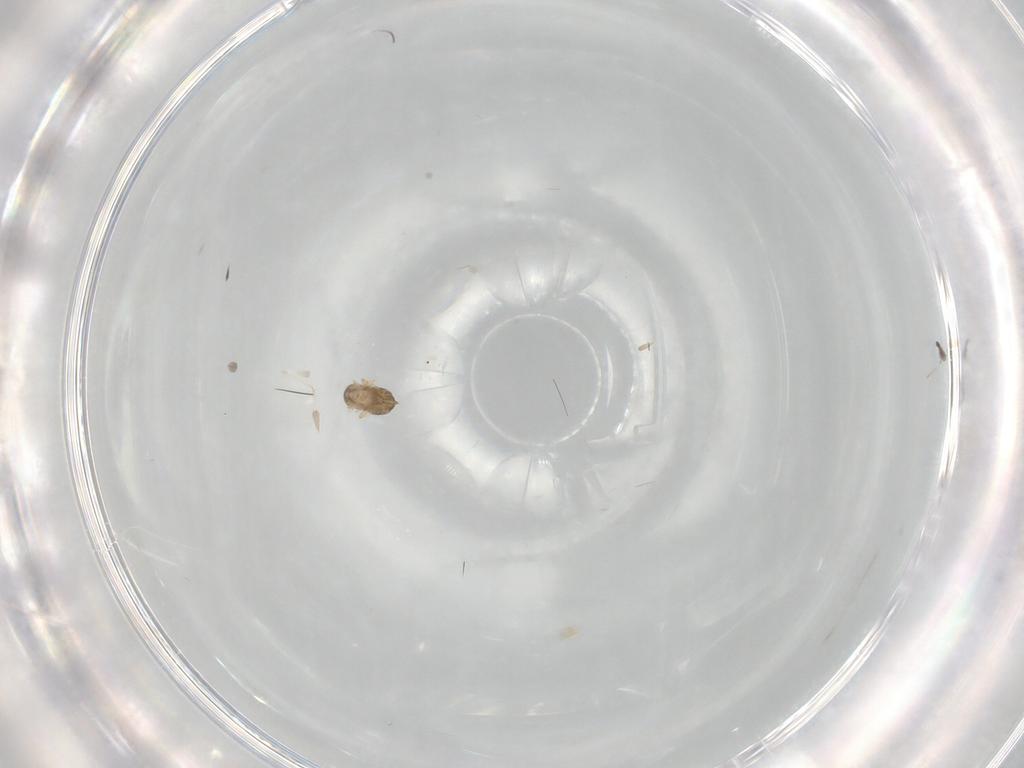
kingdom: Animalia
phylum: Arthropoda
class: Insecta
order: Hymenoptera
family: Trichogrammatidae
